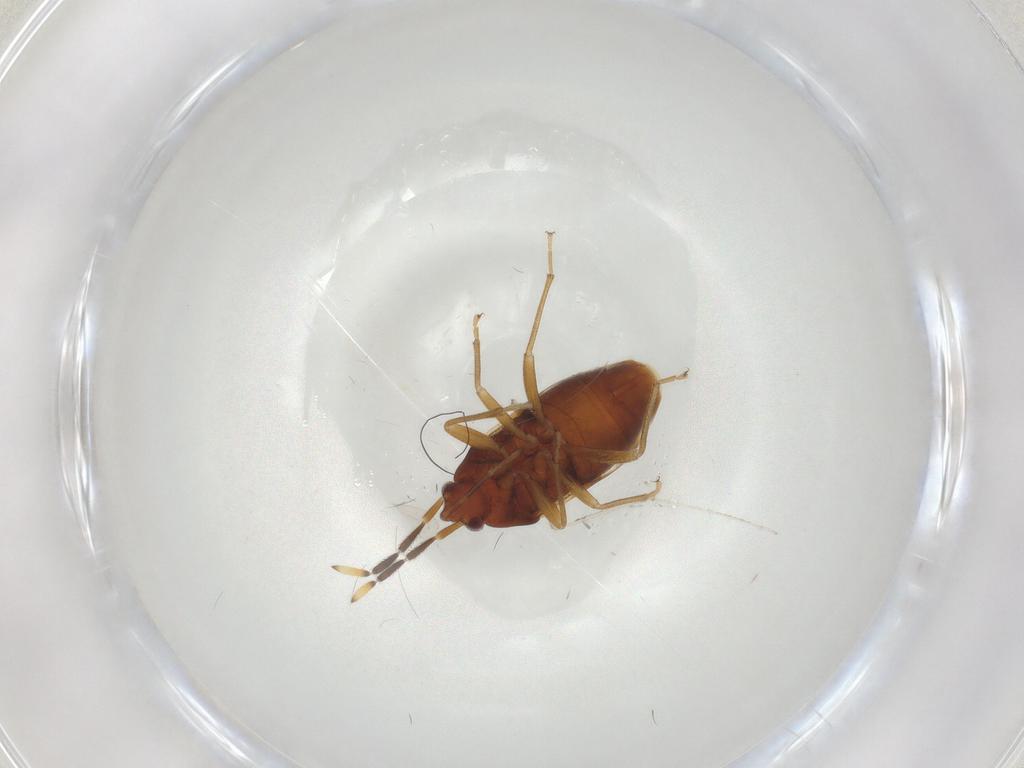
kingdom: Animalia
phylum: Arthropoda
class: Insecta
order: Hemiptera
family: Rhyparochromidae
